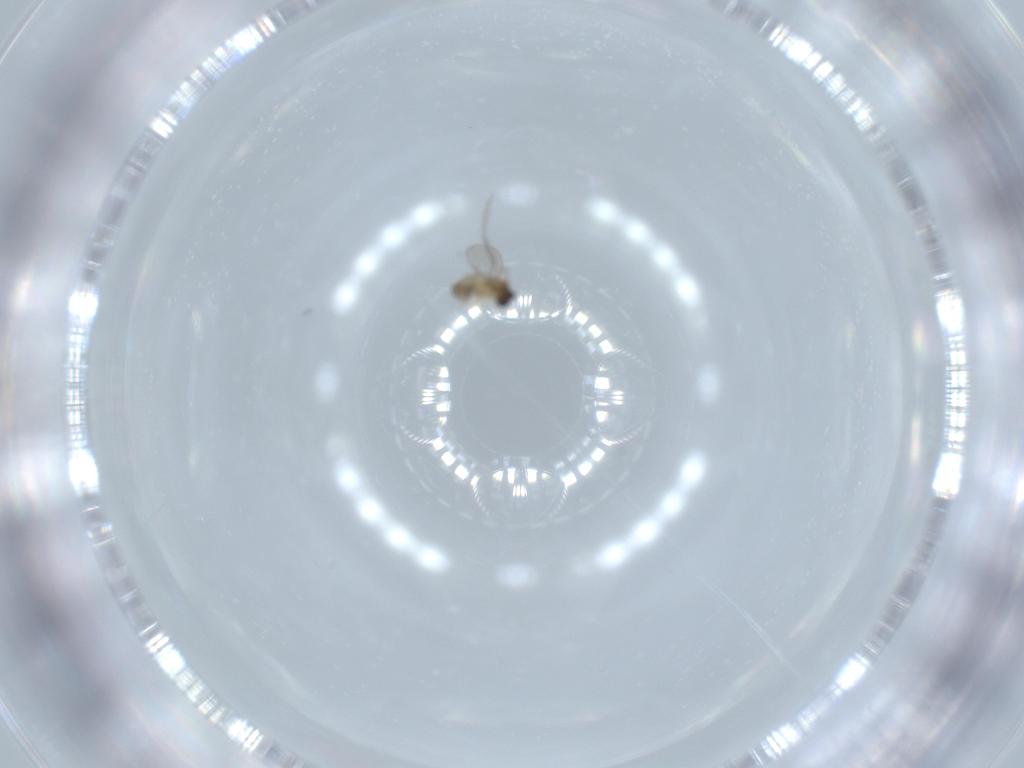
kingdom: Animalia
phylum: Arthropoda
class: Insecta
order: Diptera
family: Cecidomyiidae
